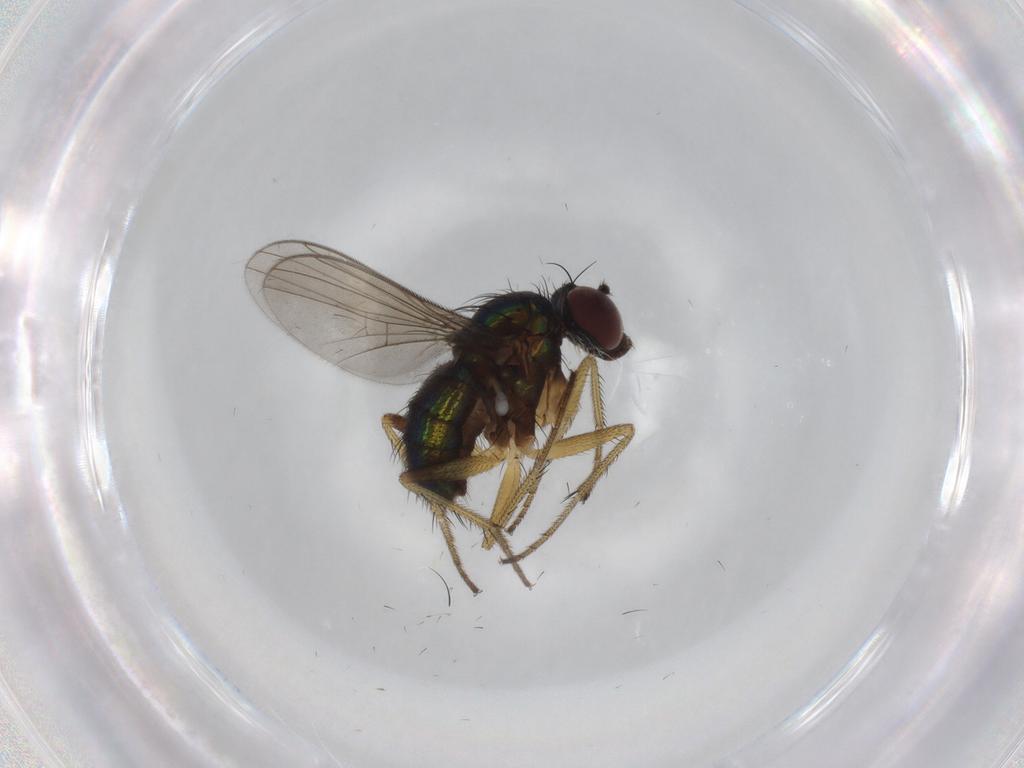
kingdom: Animalia
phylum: Arthropoda
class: Insecta
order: Diptera
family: Dolichopodidae
